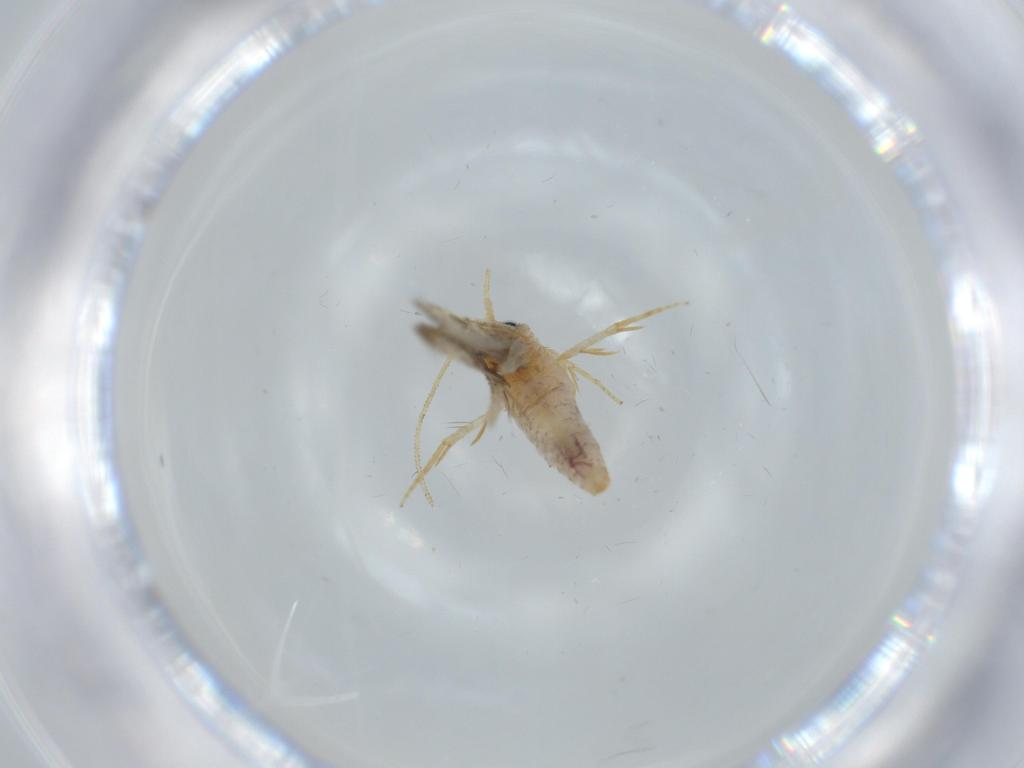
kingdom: Animalia
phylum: Arthropoda
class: Insecta
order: Lepidoptera
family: Nepticulidae
